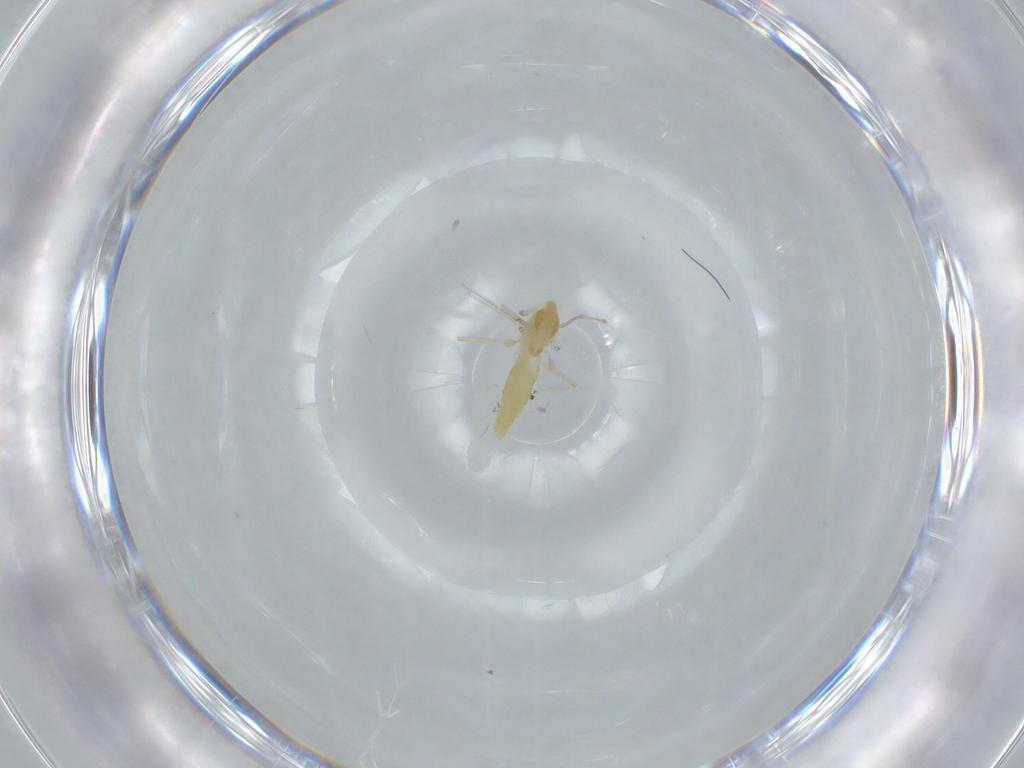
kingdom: Animalia
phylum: Arthropoda
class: Insecta
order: Diptera
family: Chironomidae
